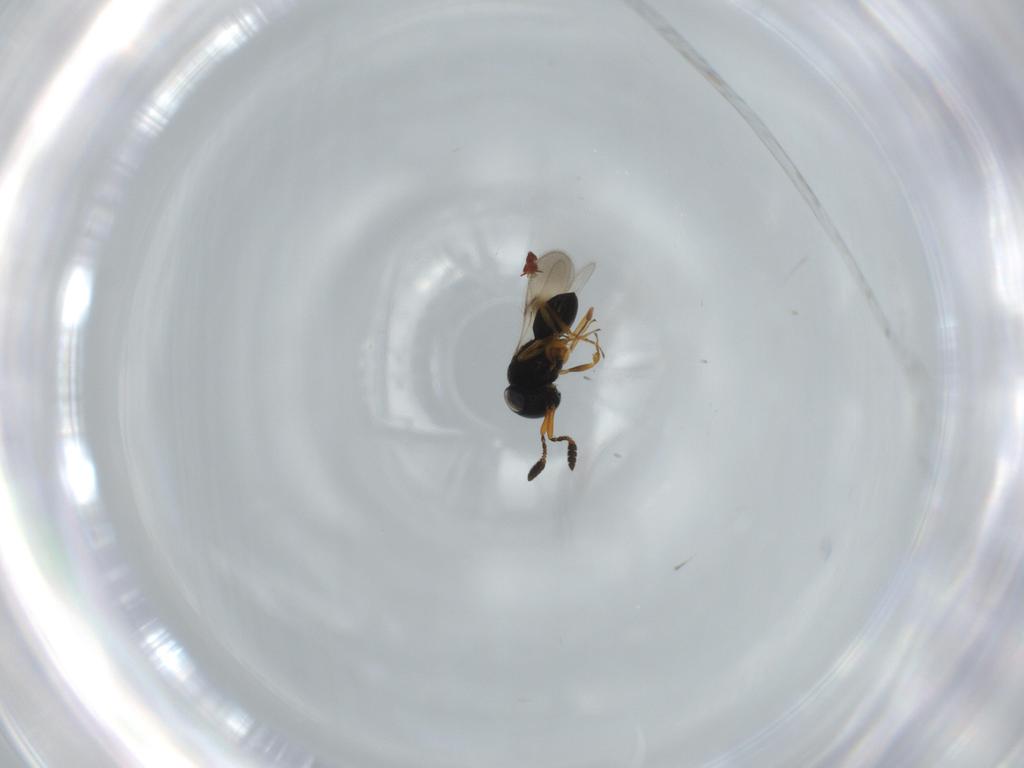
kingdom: Animalia
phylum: Arthropoda
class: Insecta
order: Hymenoptera
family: Scelionidae
